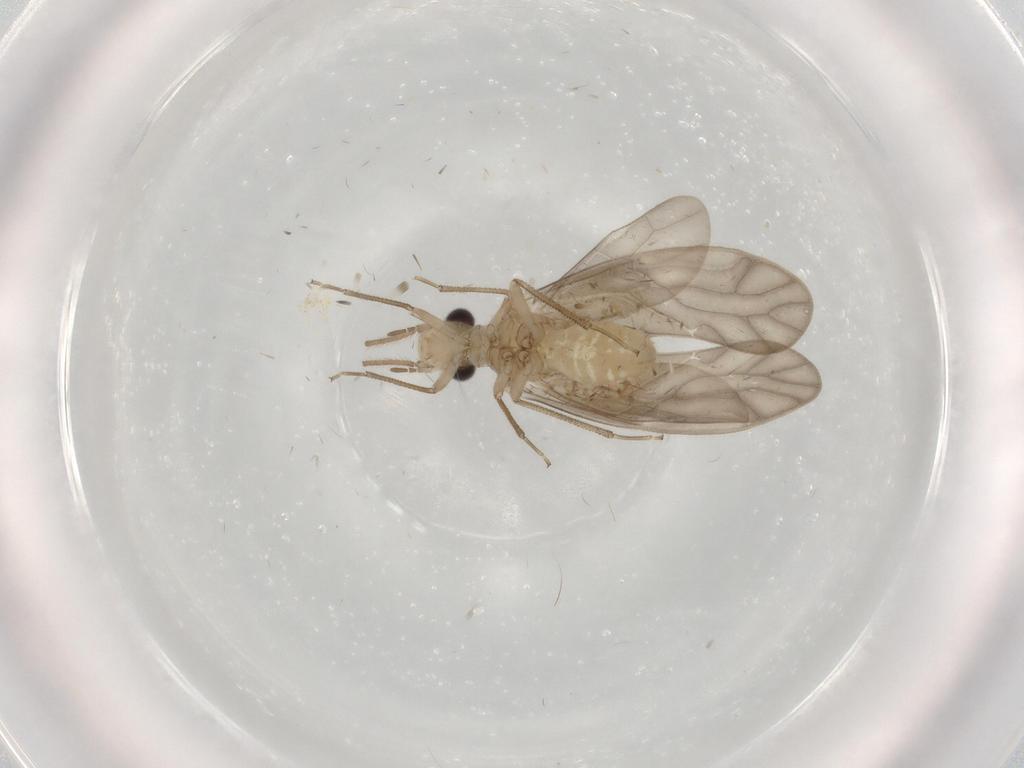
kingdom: Animalia
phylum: Arthropoda
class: Insecta
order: Psocodea
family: Caeciliusidae
